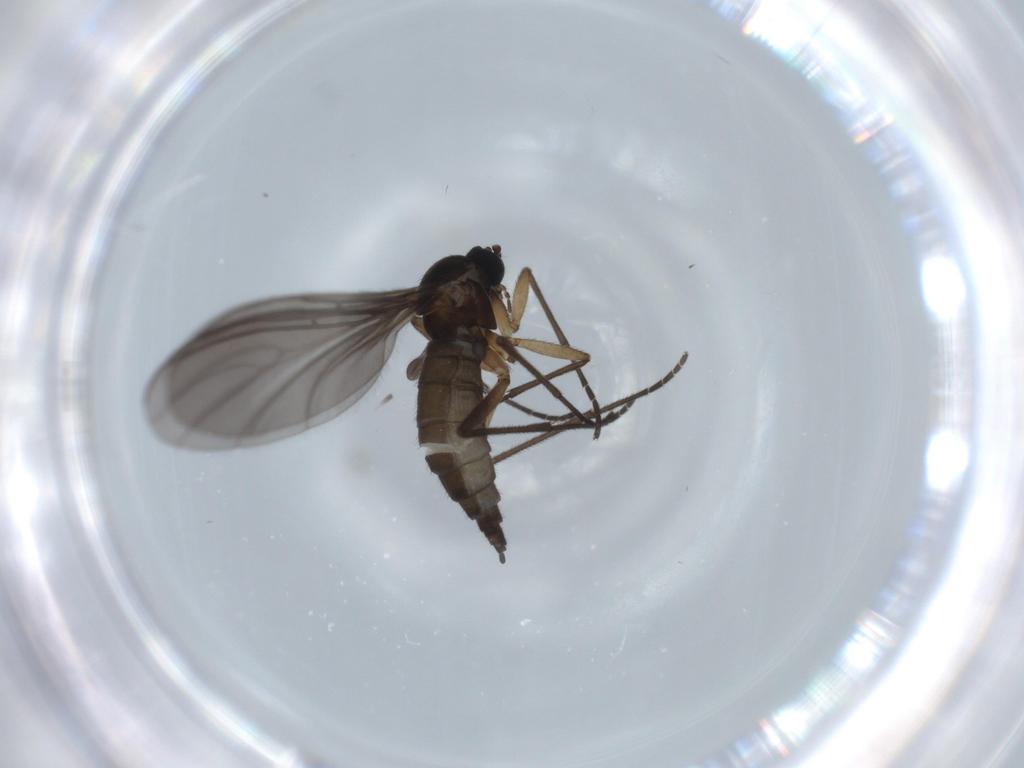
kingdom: Animalia
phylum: Arthropoda
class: Insecta
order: Diptera
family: Sciaridae
